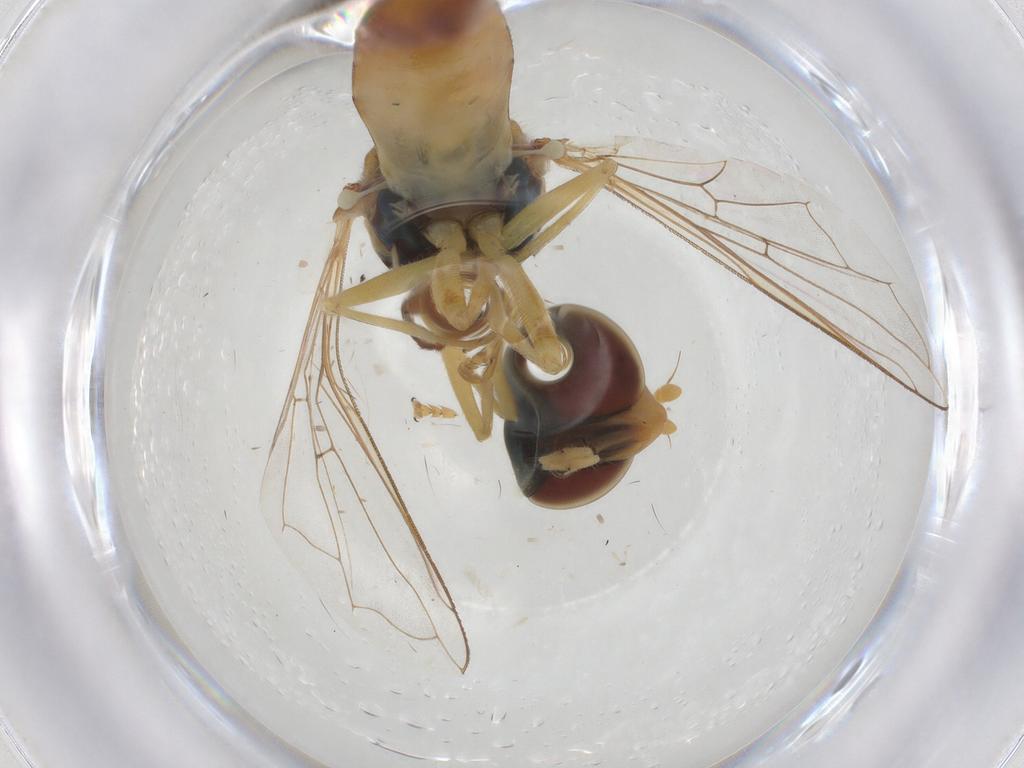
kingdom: Animalia
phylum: Arthropoda
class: Insecta
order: Diptera
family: Syrphidae
